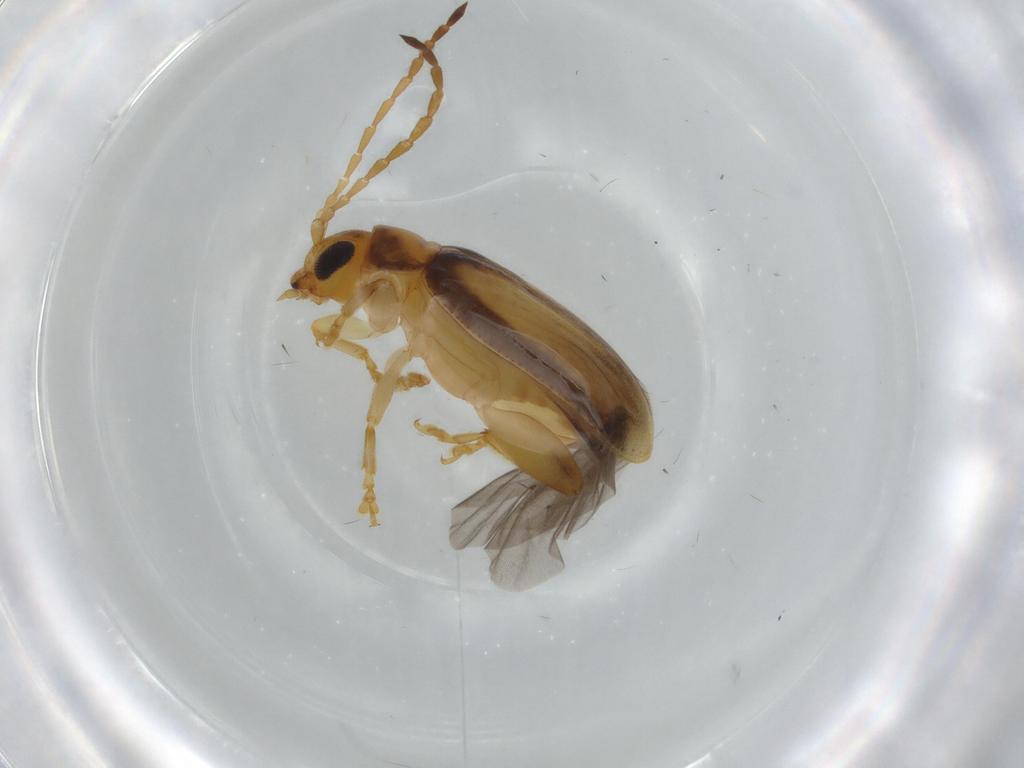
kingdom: Animalia
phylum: Arthropoda
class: Insecta
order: Coleoptera
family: Chrysomelidae
